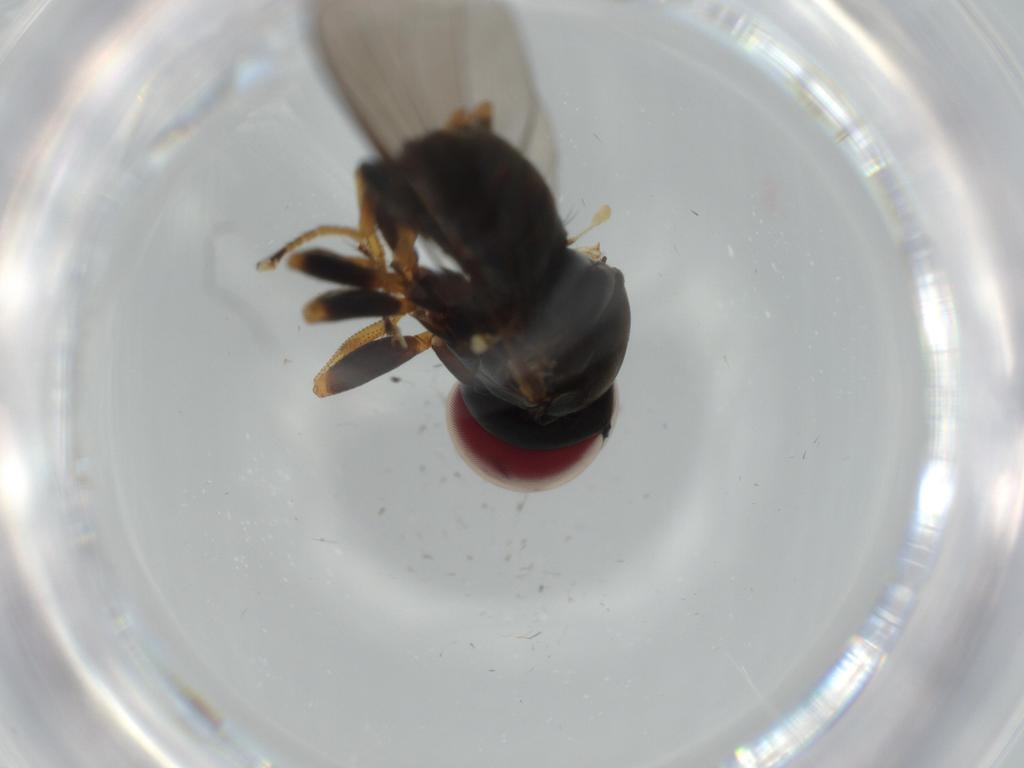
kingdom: Animalia
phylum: Arthropoda
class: Insecta
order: Diptera
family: Pipunculidae
